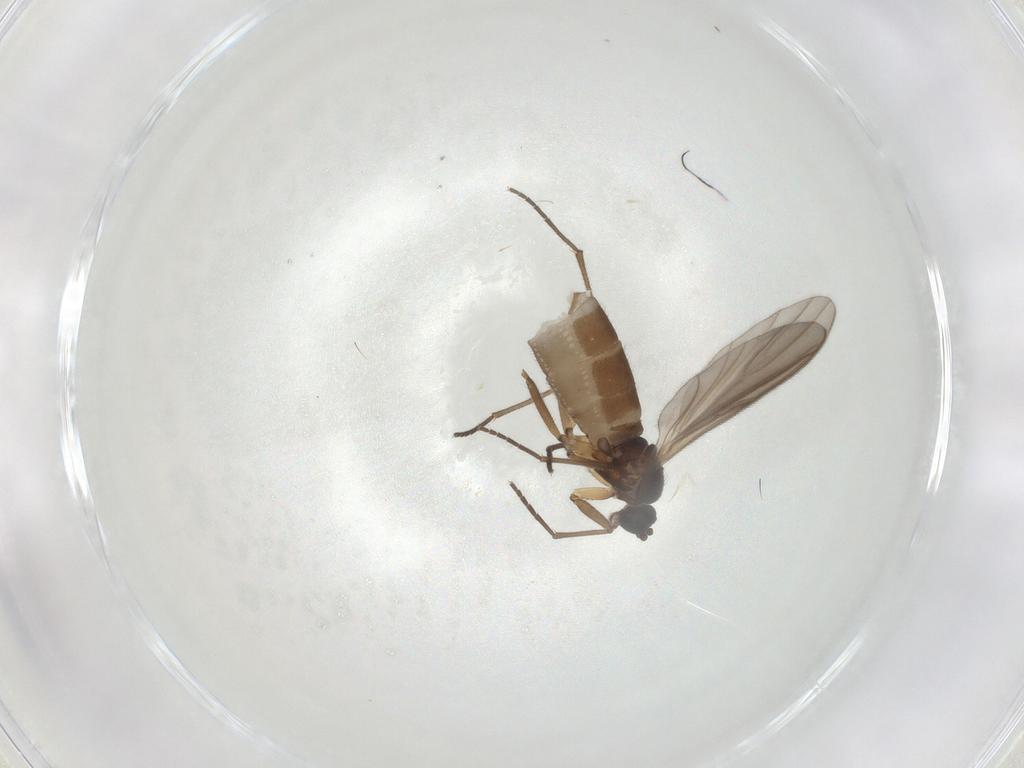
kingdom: Animalia
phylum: Arthropoda
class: Insecta
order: Diptera
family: Sciaridae
